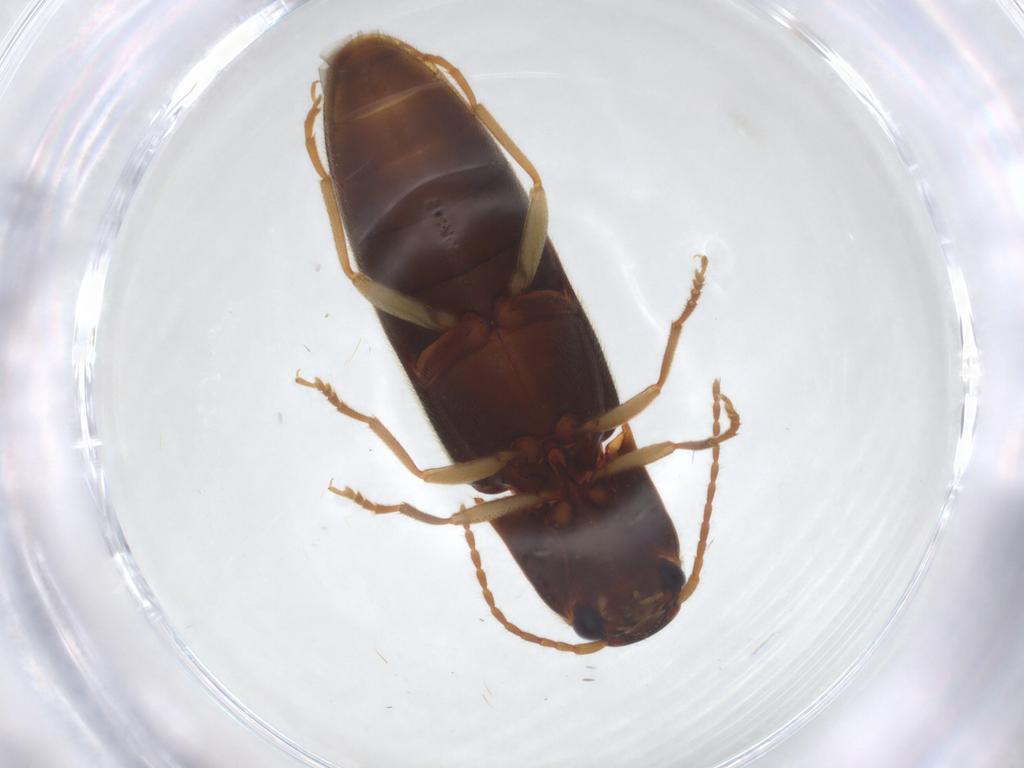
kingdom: Animalia
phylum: Arthropoda
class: Insecta
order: Coleoptera
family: Elateridae
